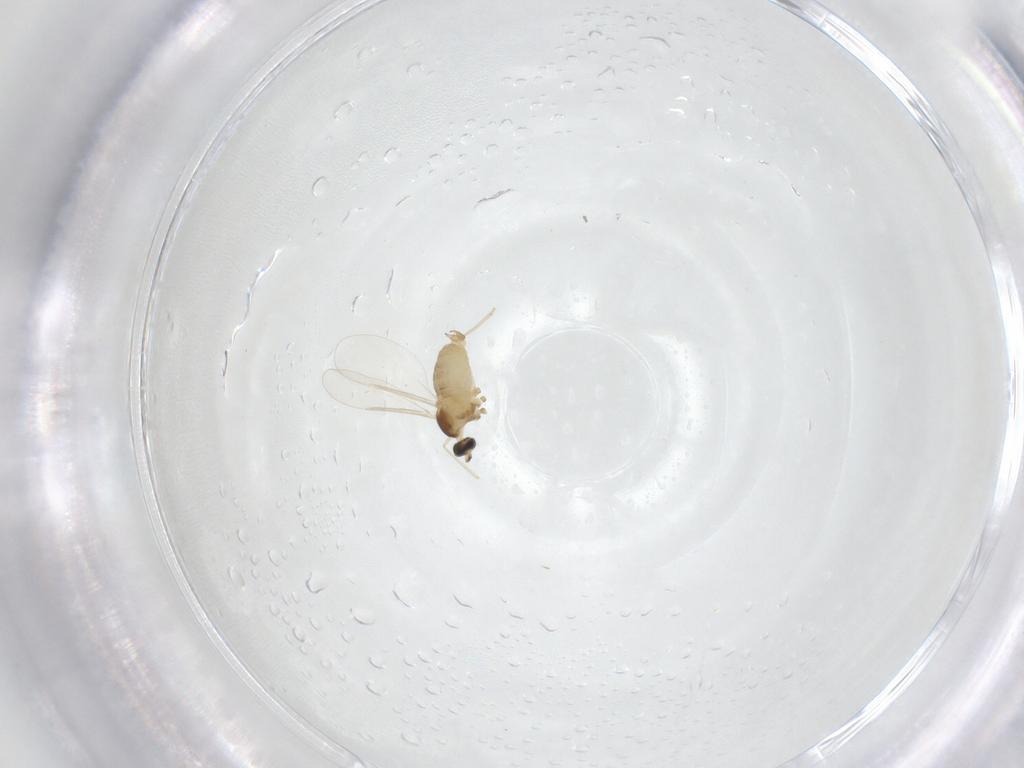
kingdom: Animalia
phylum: Arthropoda
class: Insecta
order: Diptera
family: Cecidomyiidae
